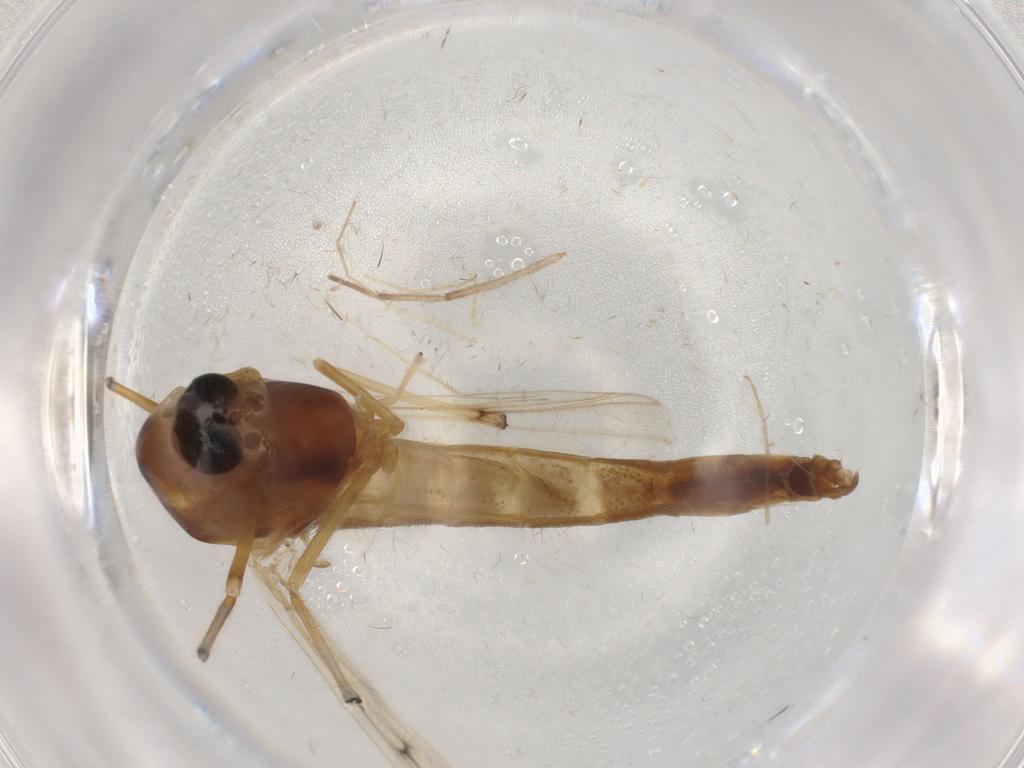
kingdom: Animalia
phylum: Arthropoda
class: Insecta
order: Diptera
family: Chironomidae
